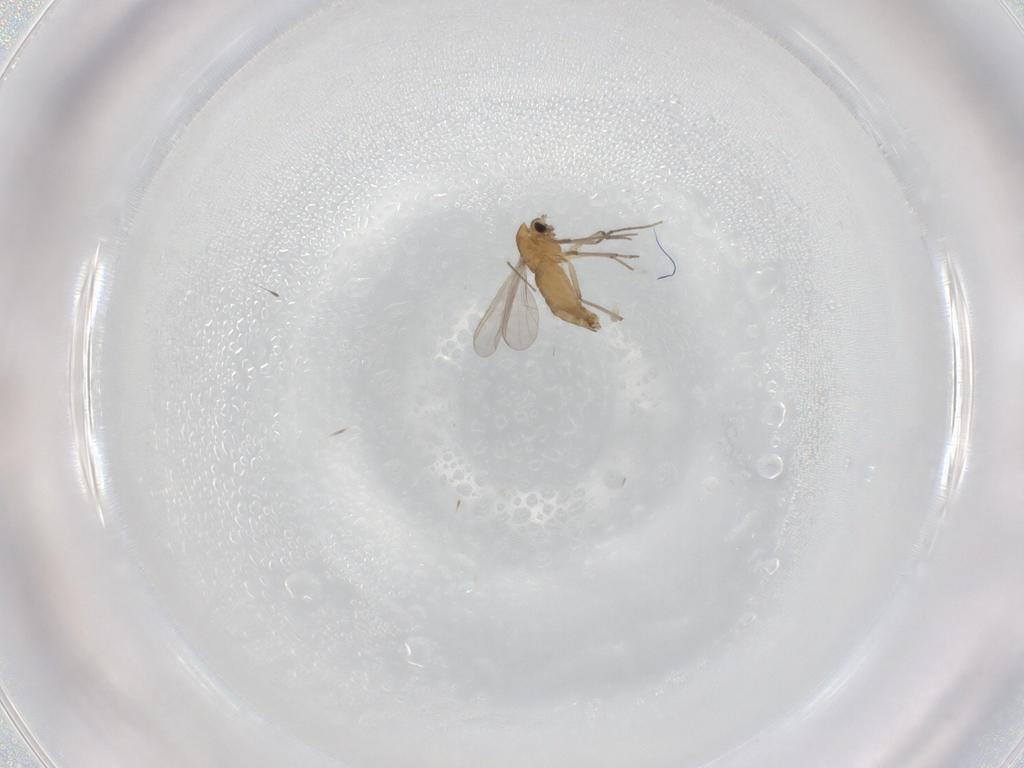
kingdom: Animalia
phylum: Arthropoda
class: Insecta
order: Diptera
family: Chironomidae
